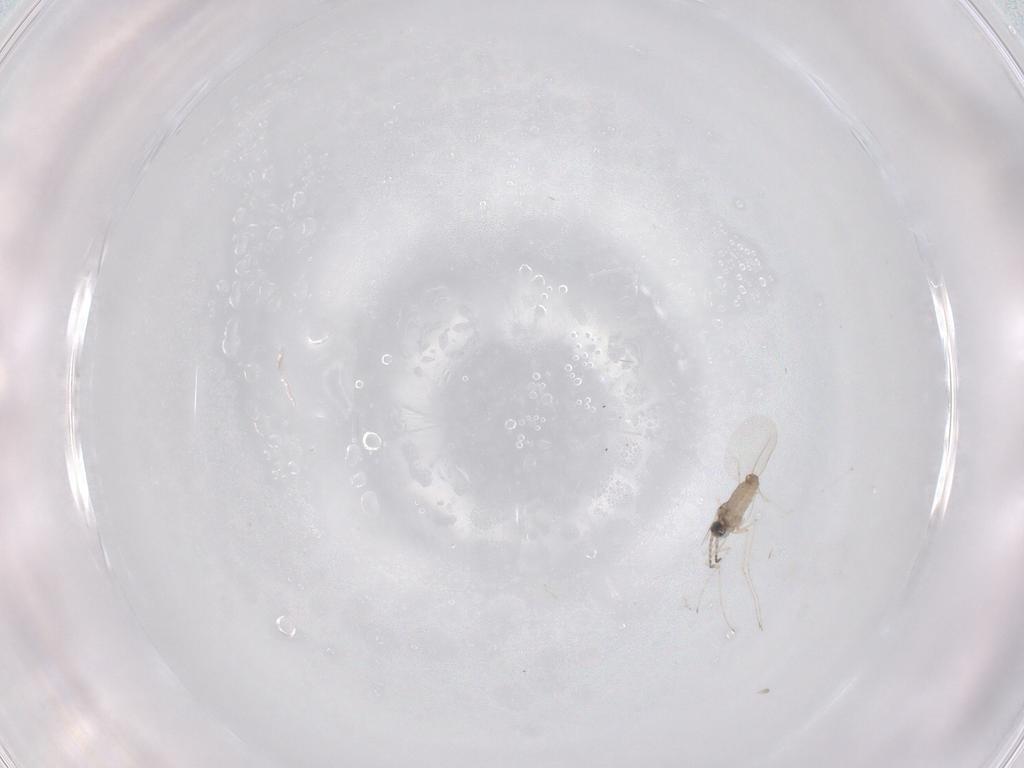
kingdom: Animalia
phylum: Arthropoda
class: Insecta
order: Diptera
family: Cecidomyiidae
